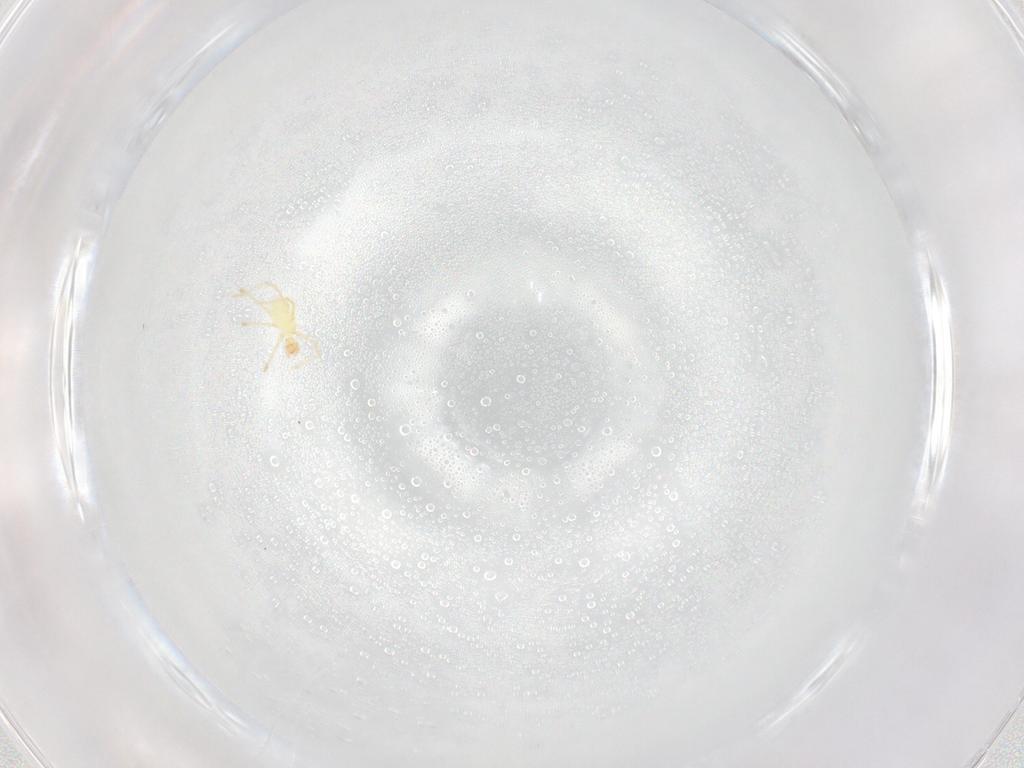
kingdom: Animalia
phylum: Arthropoda
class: Arachnida
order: Trombidiformes
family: Erythraeidae
